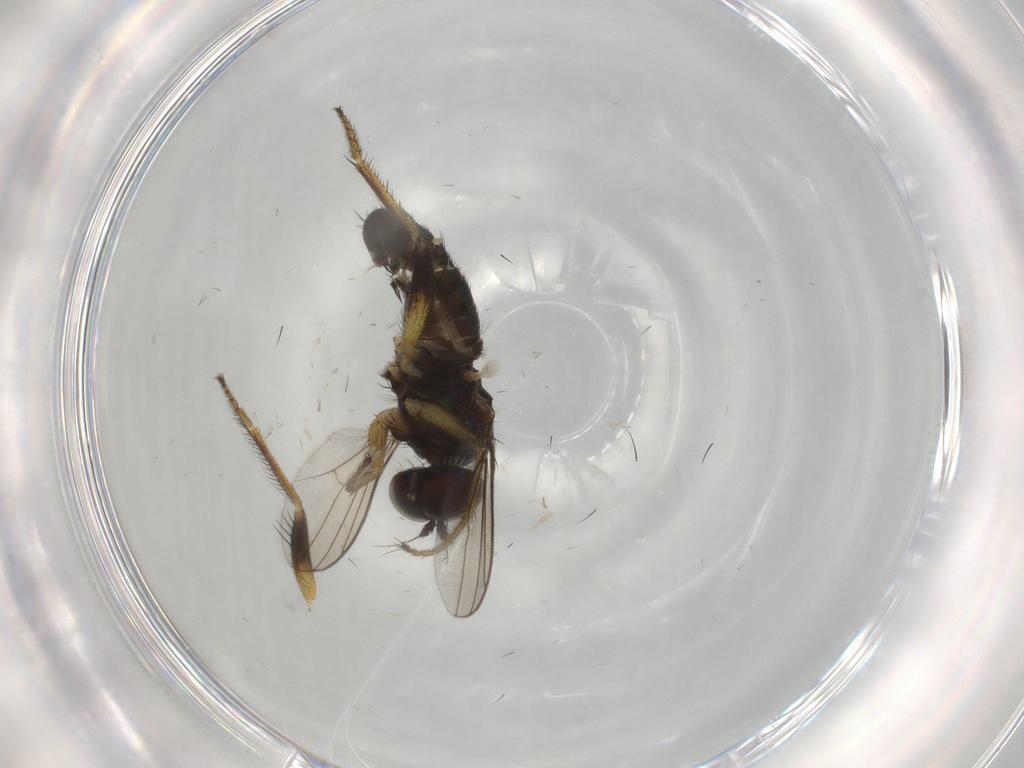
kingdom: Animalia
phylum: Arthropoda
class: Insecta
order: Diptera
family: Dolichopodidae
